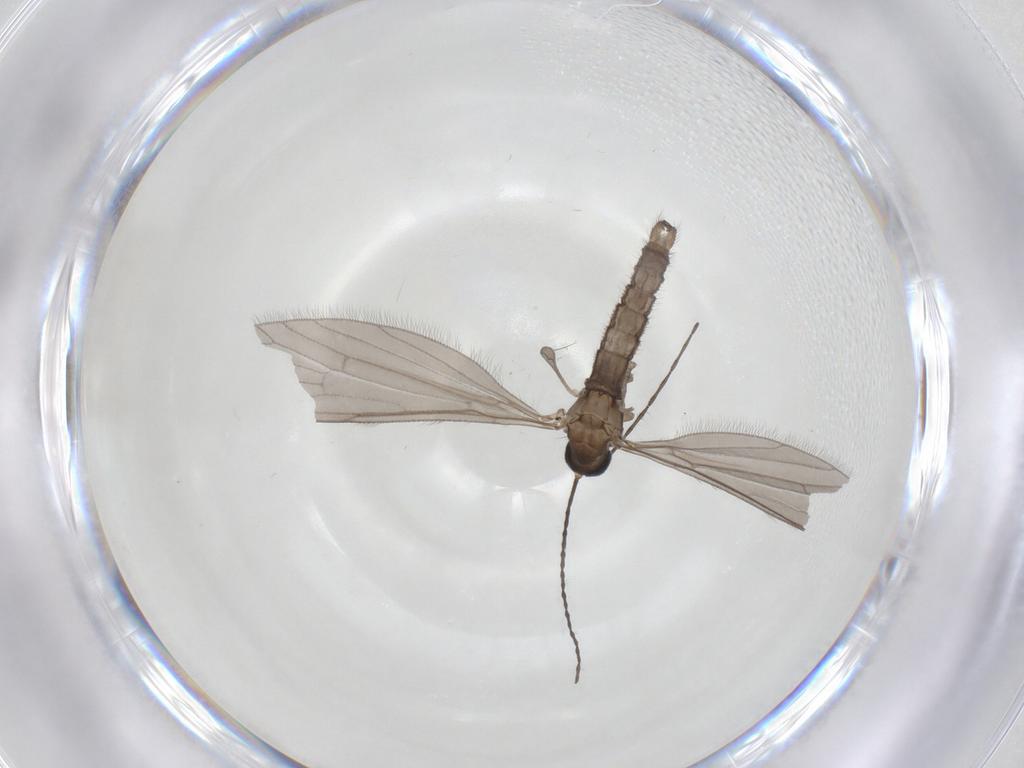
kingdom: Animalia
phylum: Arthropoda
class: Insecta
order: Diptera
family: Limoniidae
